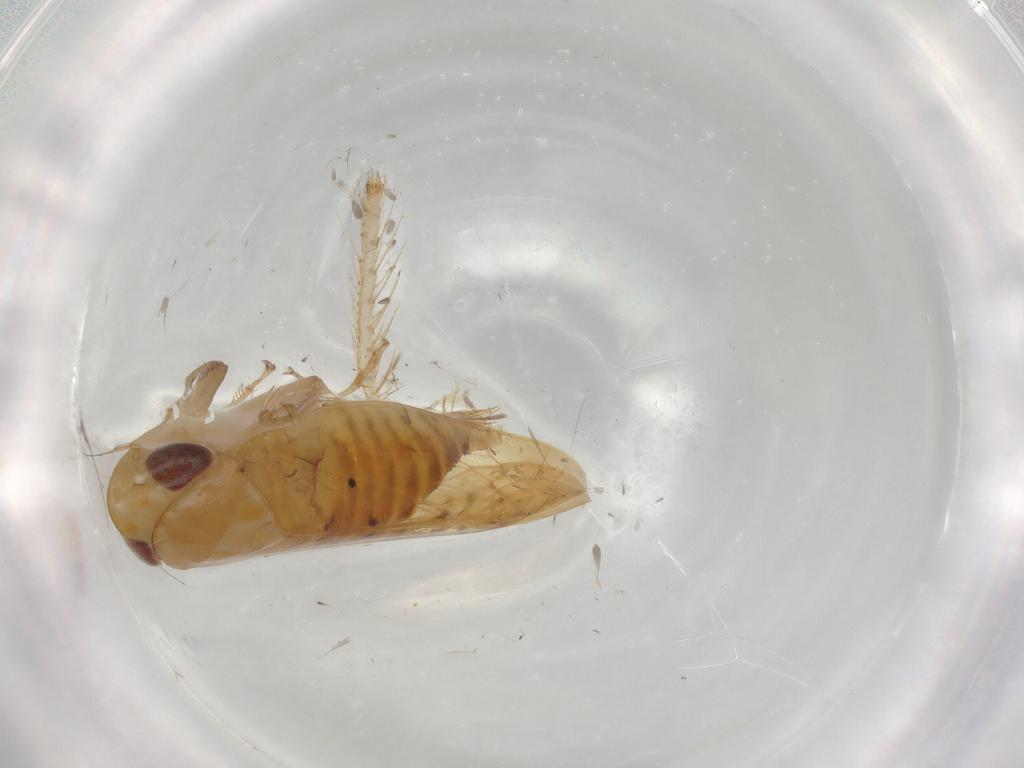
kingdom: Animalia
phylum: Arthropoda
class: Insecta
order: Hemiptera
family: Cicadellidae
